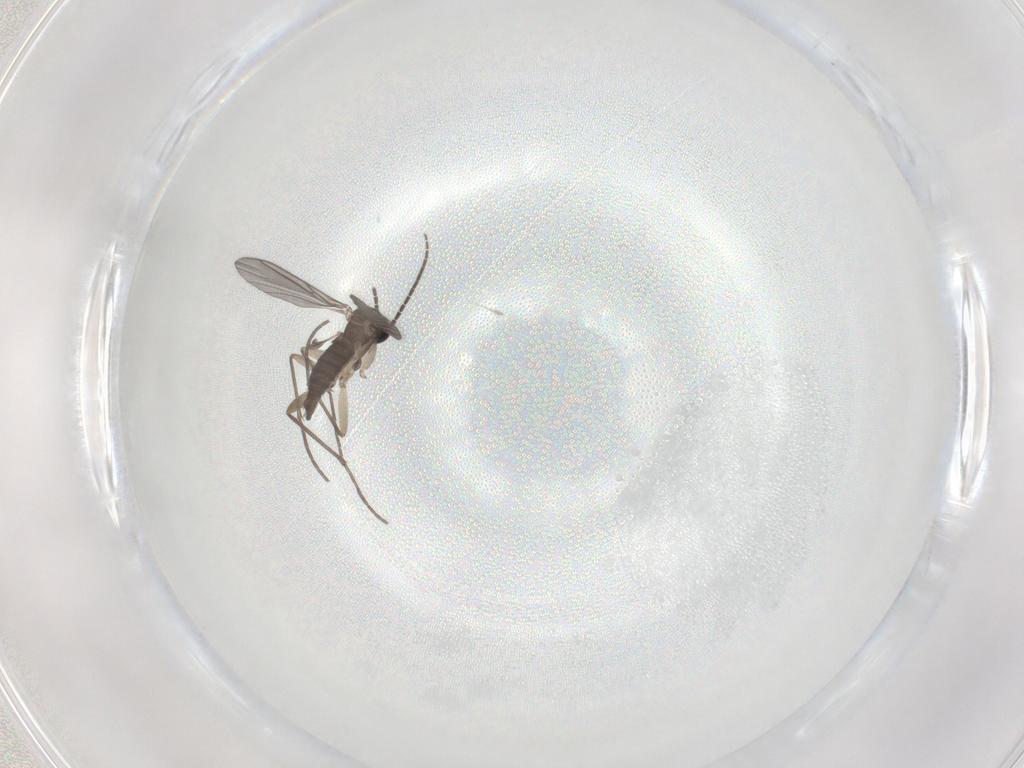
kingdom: Animalia
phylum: Arthropoda
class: Insecta
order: Diptera
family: Sciaridae
